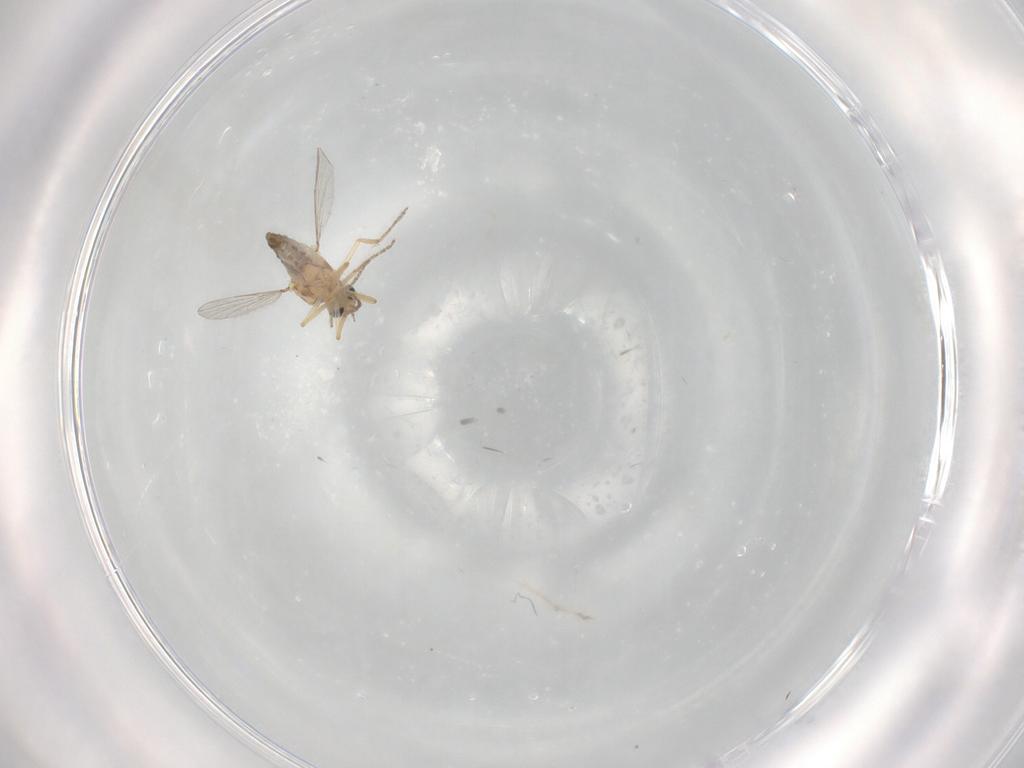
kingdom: Animalia
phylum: Arthropoda
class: Insecta
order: Diptera
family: Ceratopogonidae
